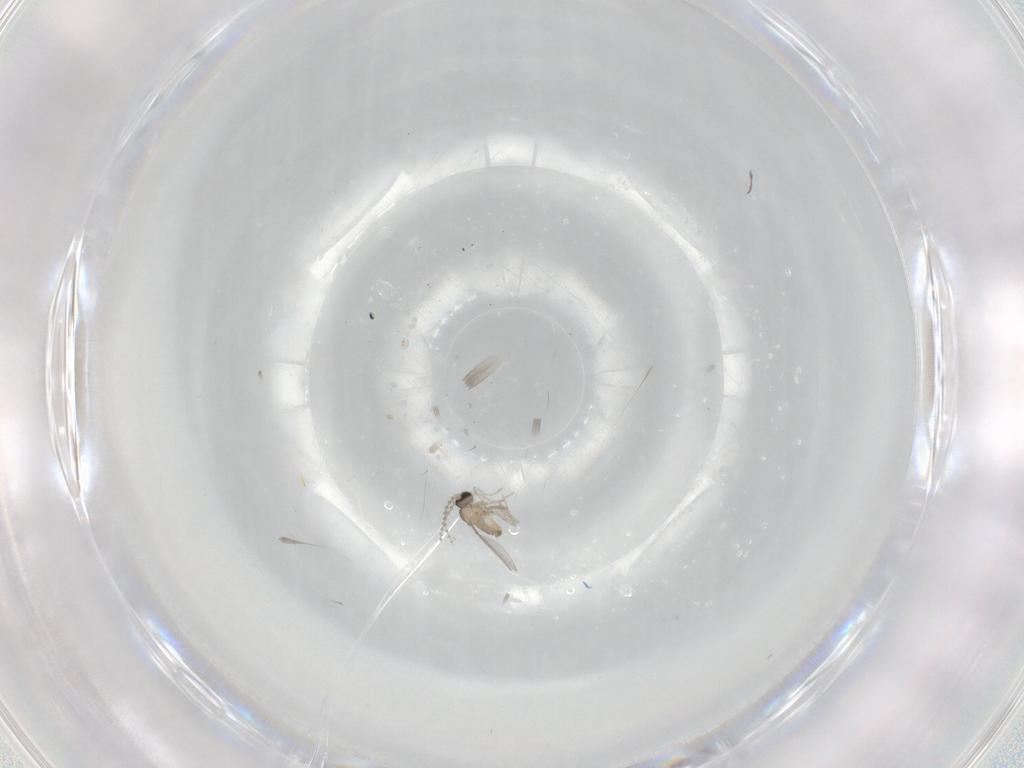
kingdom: Animalia
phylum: Arthropoda
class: Insecta
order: Diptera
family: Cecidomyiidae
